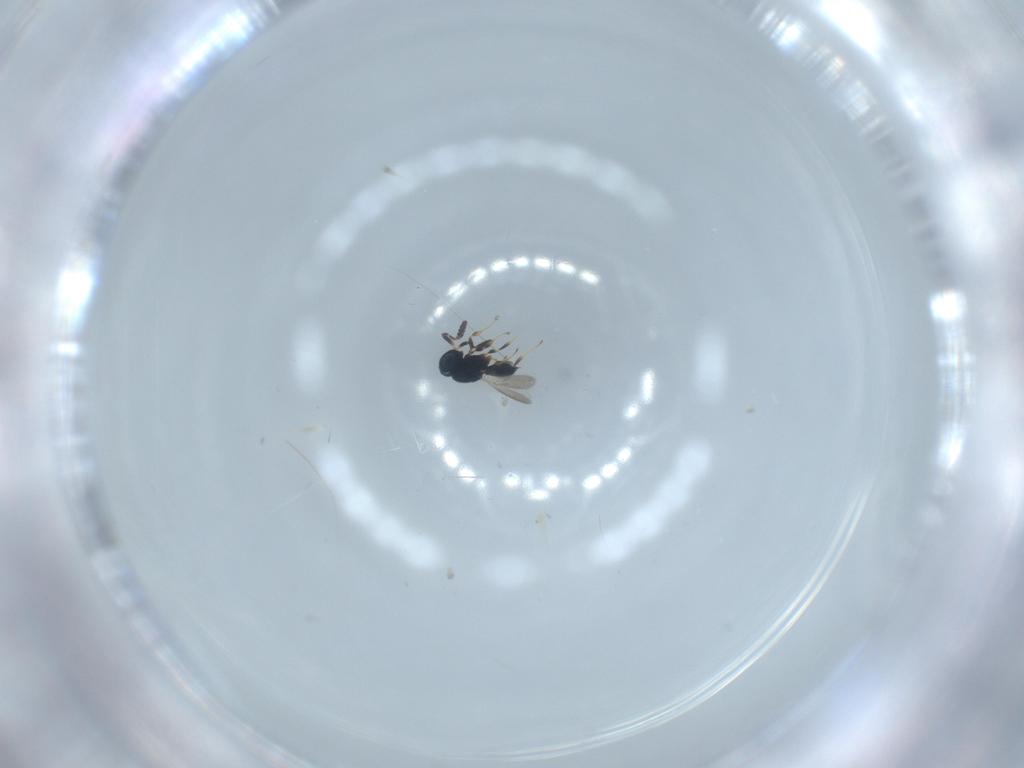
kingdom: Animalia
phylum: Arthropoda
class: Insecta
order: Hymenoptera
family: Scelionidae
